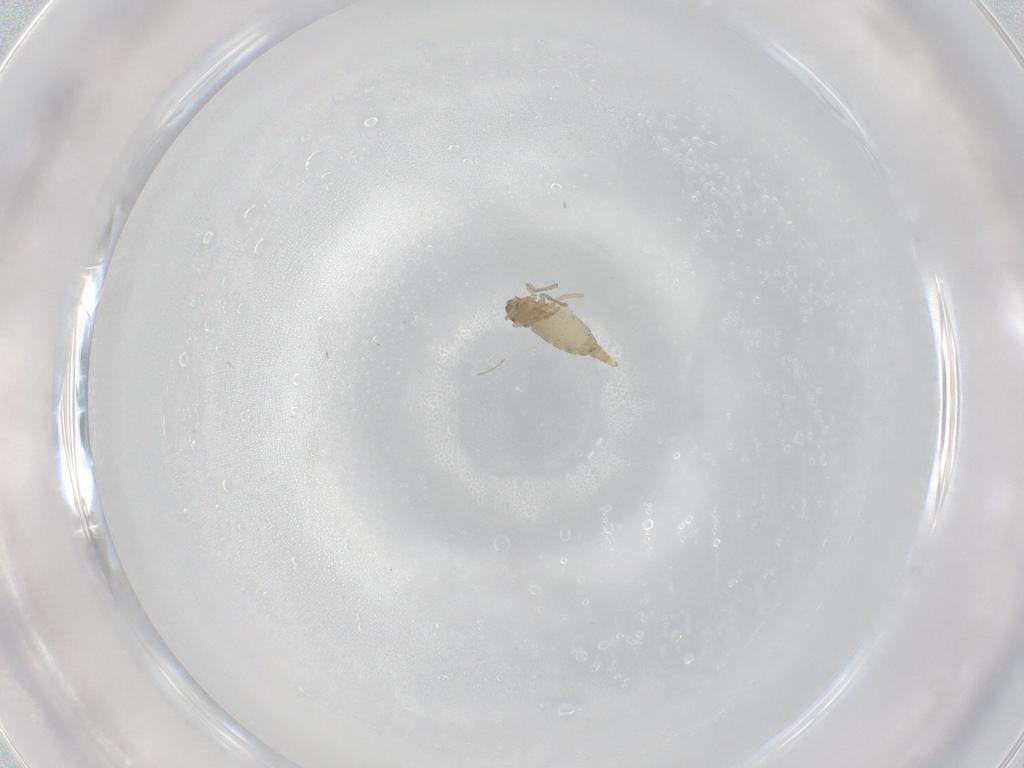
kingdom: Animalia
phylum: Arthropoda
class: Insecta
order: Diptera
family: Cecidomyiidae
